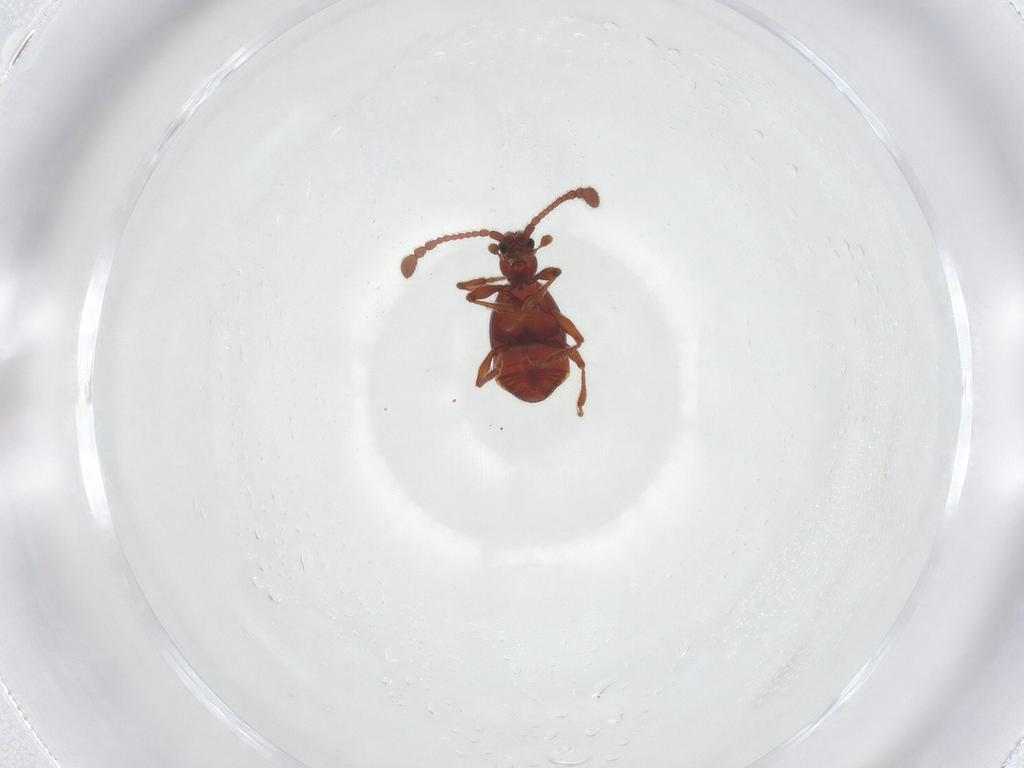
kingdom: Animalia
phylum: Arthropoda
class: Insecta
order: Coleoptera
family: Staphylinidae
